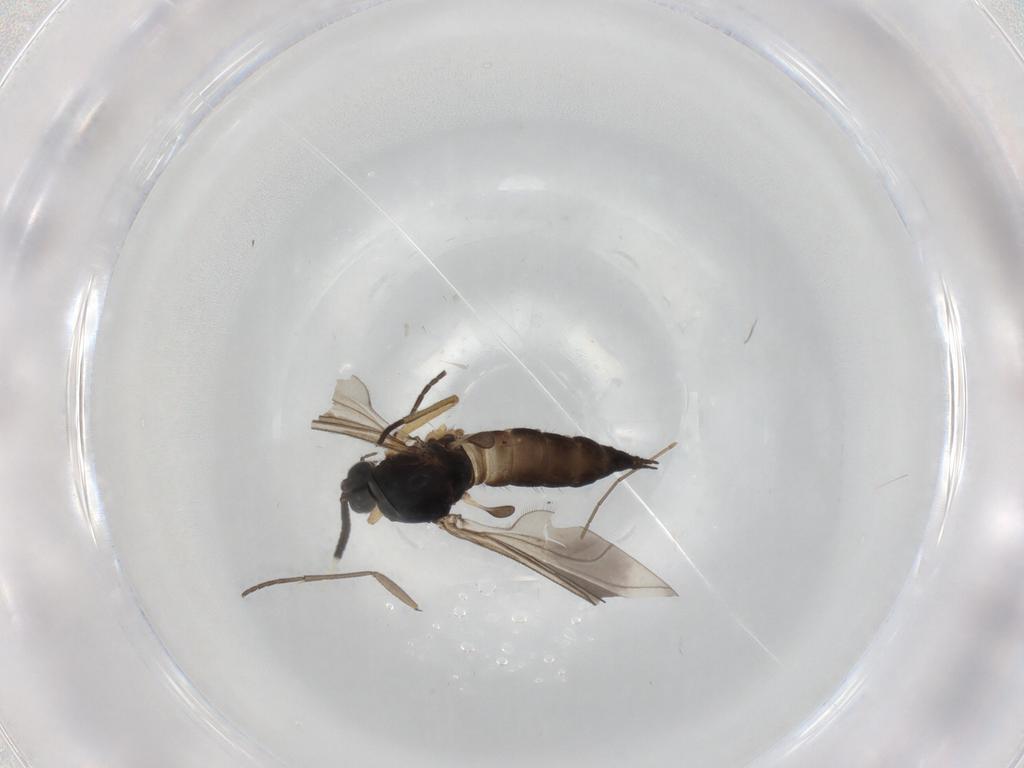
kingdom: Animalia
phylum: Arthropoda
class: Insecta
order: Diptera
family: Sciaridae
